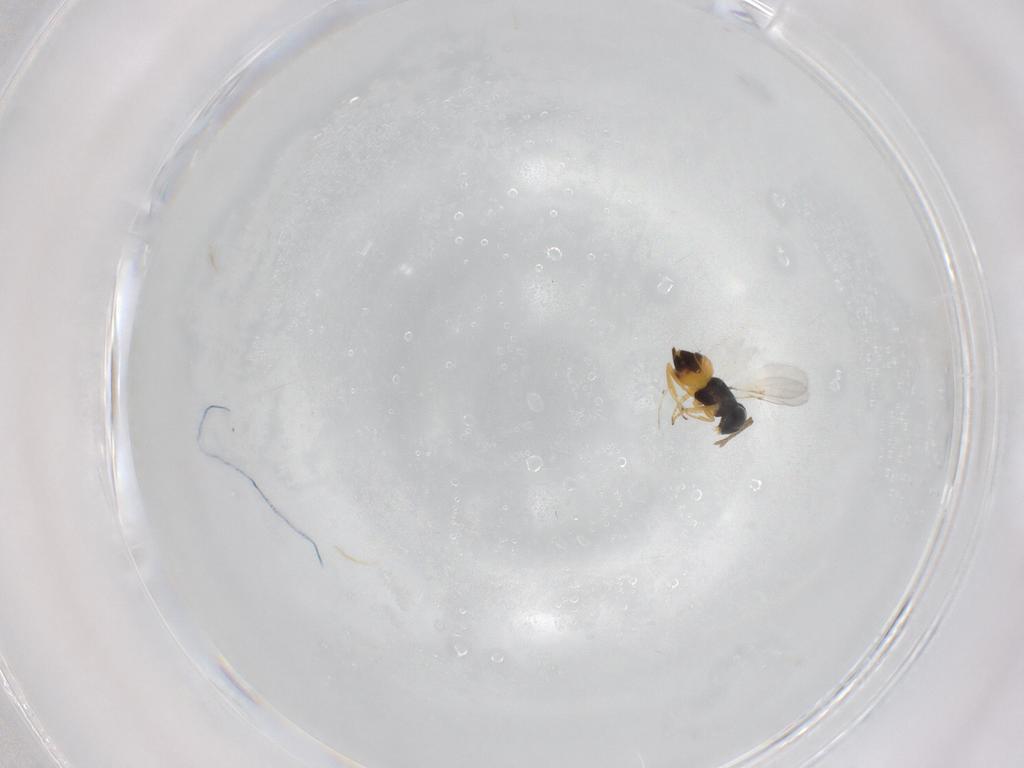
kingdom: Animalia
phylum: Arthropoda
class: Insecta
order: Hymenoptera
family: Encyrtidae
